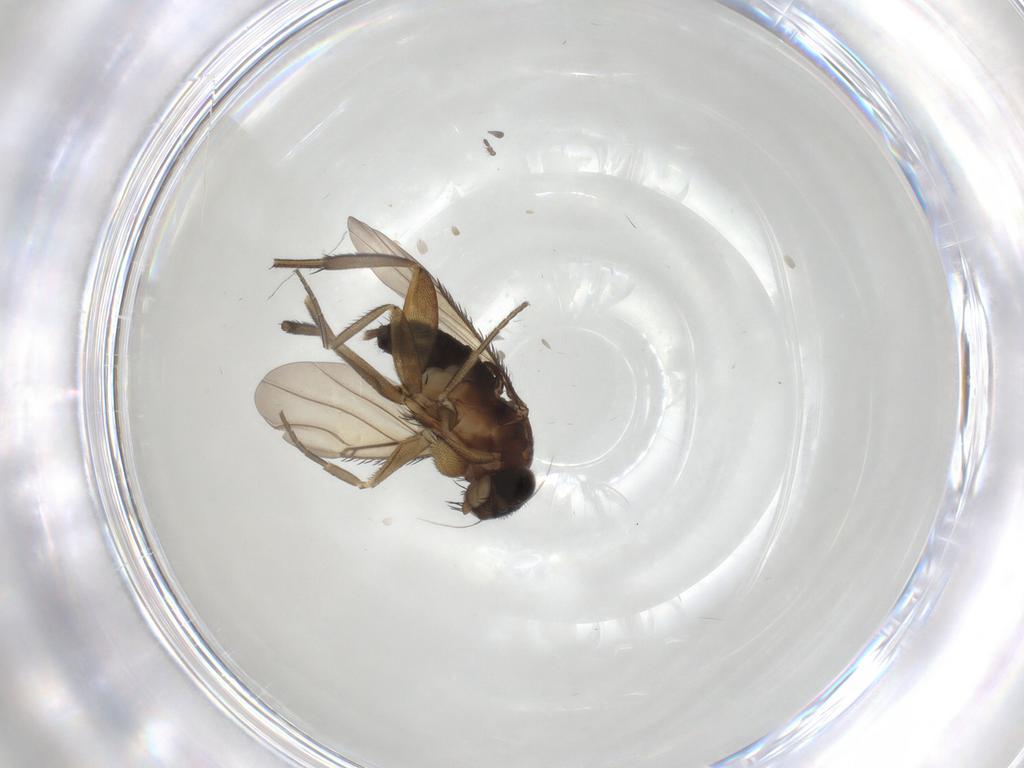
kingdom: Animalia
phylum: Arthropoda
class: Insecta
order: Diptera
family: Phoridae
